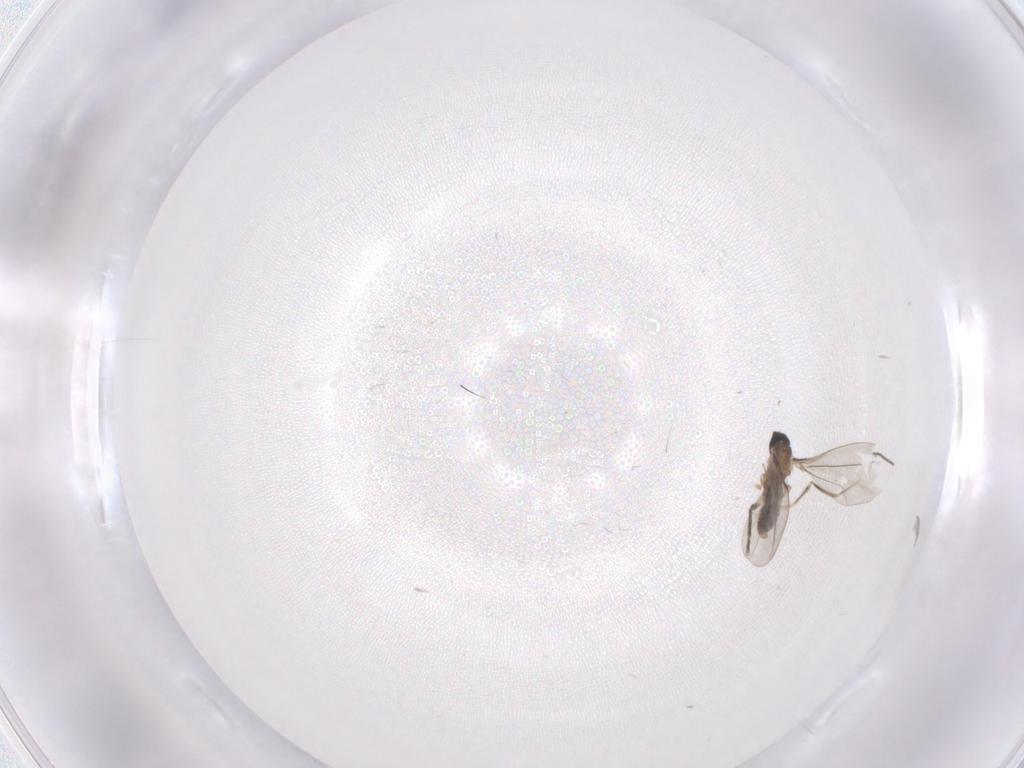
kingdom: Animalia
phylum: Arthropoda
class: Insecta
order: Diptera
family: Chironomidae
